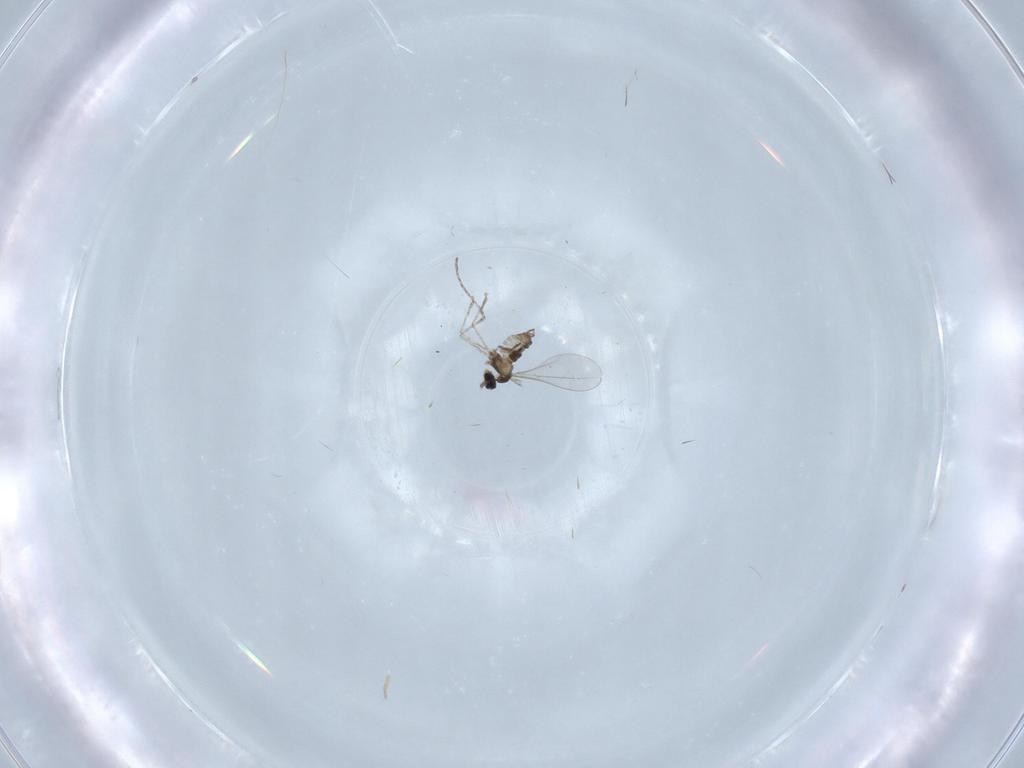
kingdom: Animalia
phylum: Arthropoda
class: Insecta
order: Diptera
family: Cecidomyiidae
